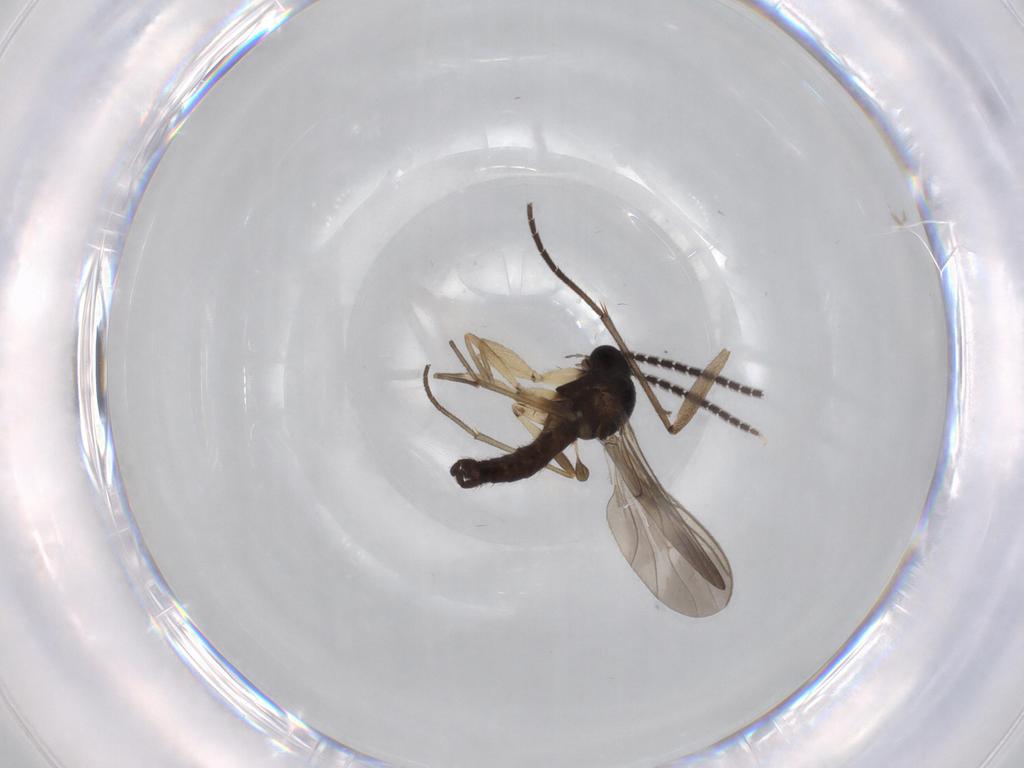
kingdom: Animalia
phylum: Arthropoda
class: Insecta
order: Diptera
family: Sciaridae
